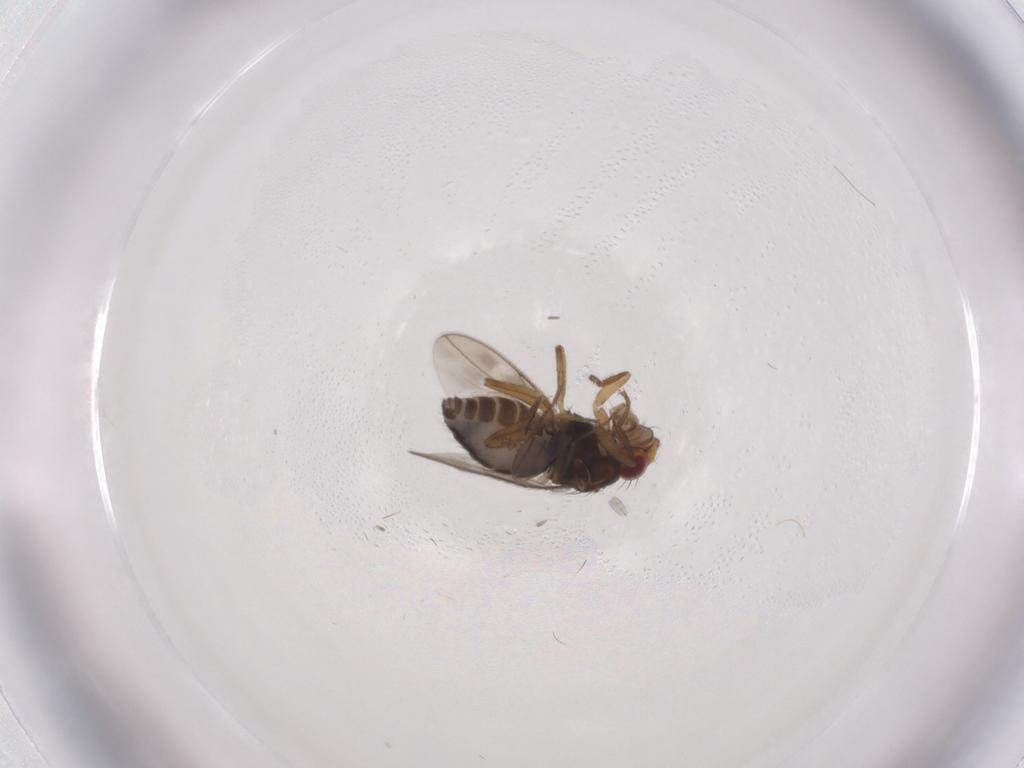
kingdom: Animalia
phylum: Arthropoda
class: Insecta
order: Diptera
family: Sphaeroceridae
